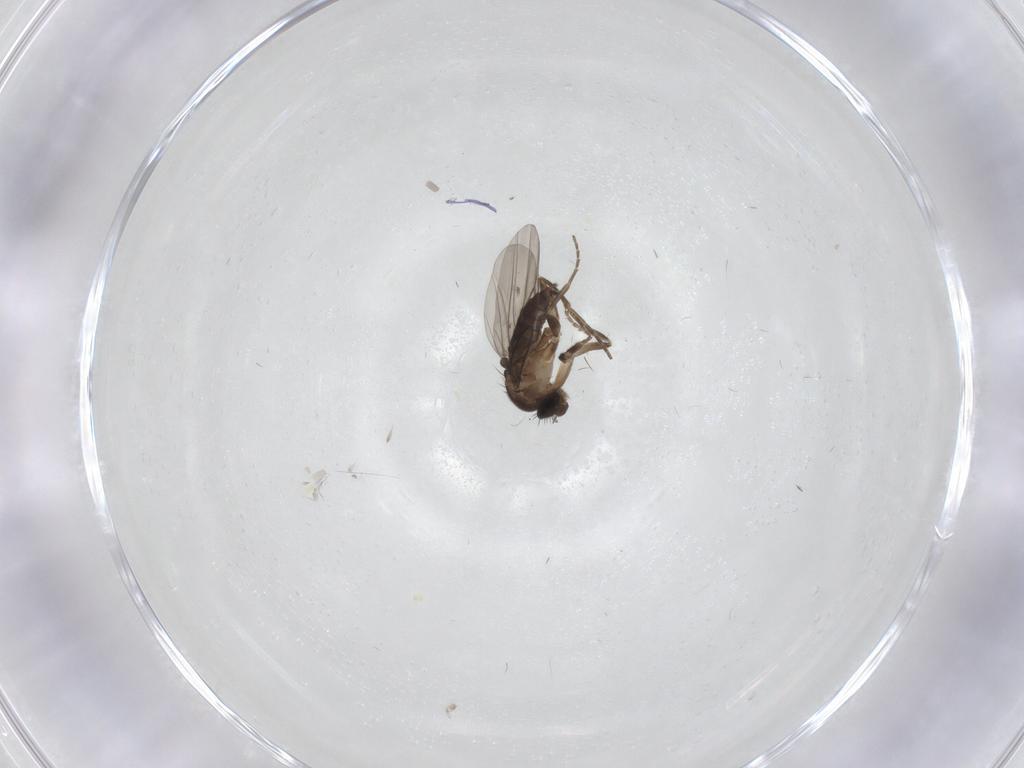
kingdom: Animalia
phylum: Arthropoda
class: Insecta
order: Diptera
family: Phoridae
